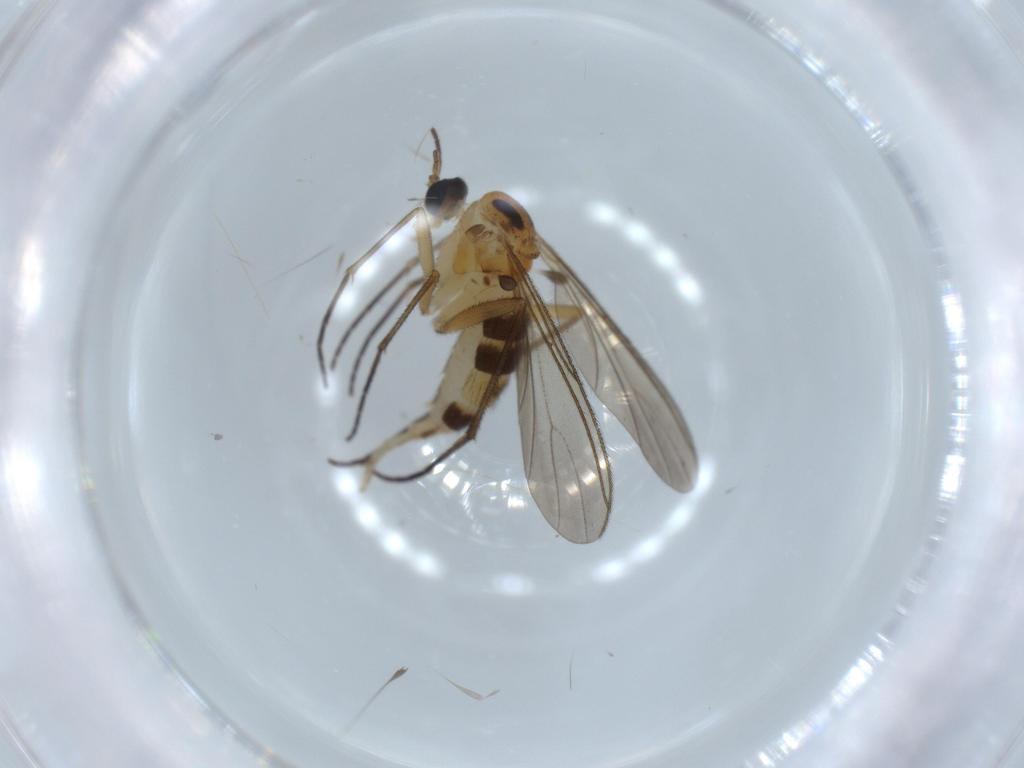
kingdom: Animalia
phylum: Arthropoda
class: Insecta
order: Diptera
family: Sciaridae
